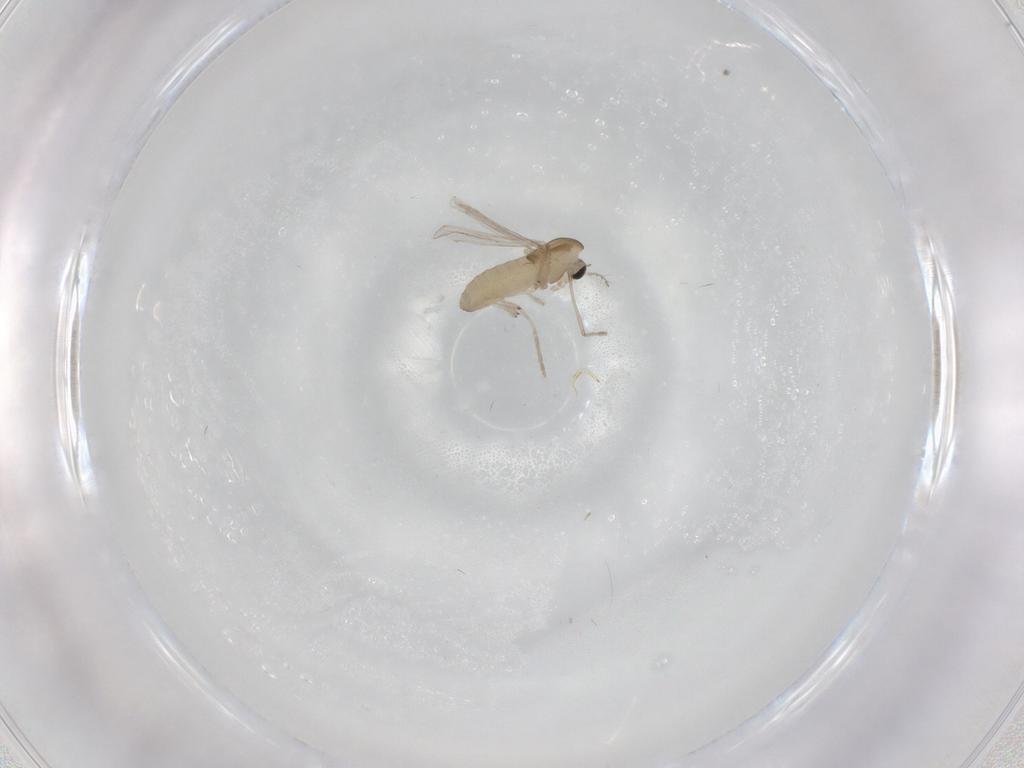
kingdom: Animalia
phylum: Arthropoda
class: Insecta
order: Diptera
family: Chironomidae
